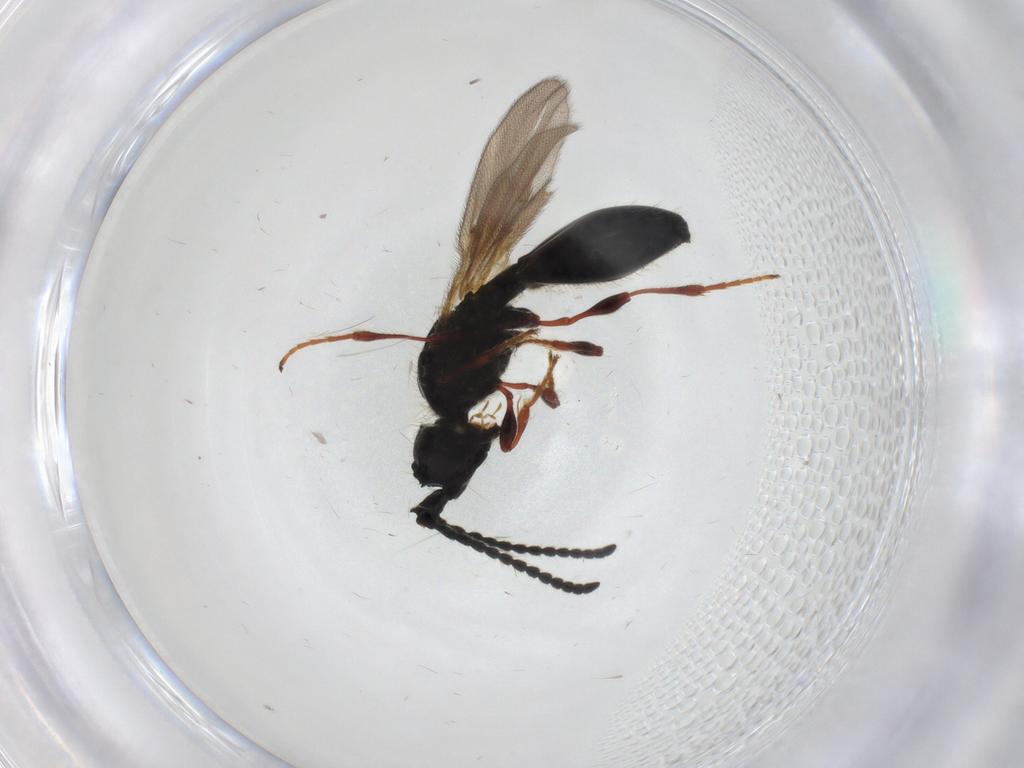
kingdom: Animalia
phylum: Arthropoda
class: Insecta
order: Hymenoptera
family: Diapriidae
